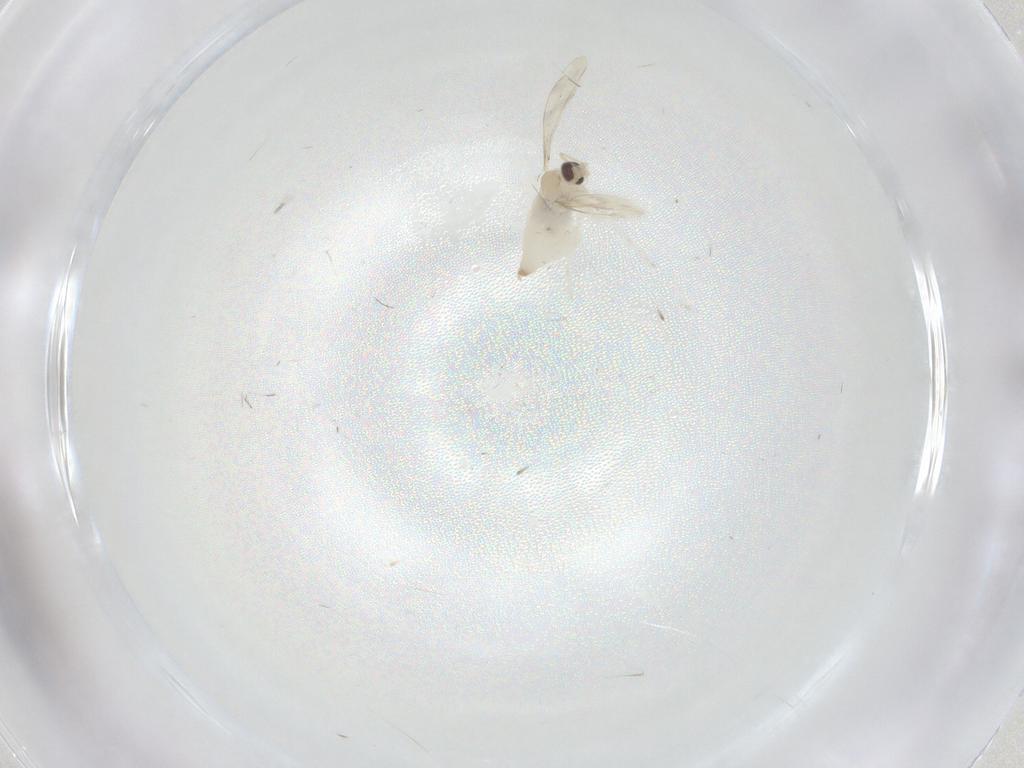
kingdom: Animalia
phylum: Arthropoda
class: Insecta
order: Diptera
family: Cecidomyiidae
